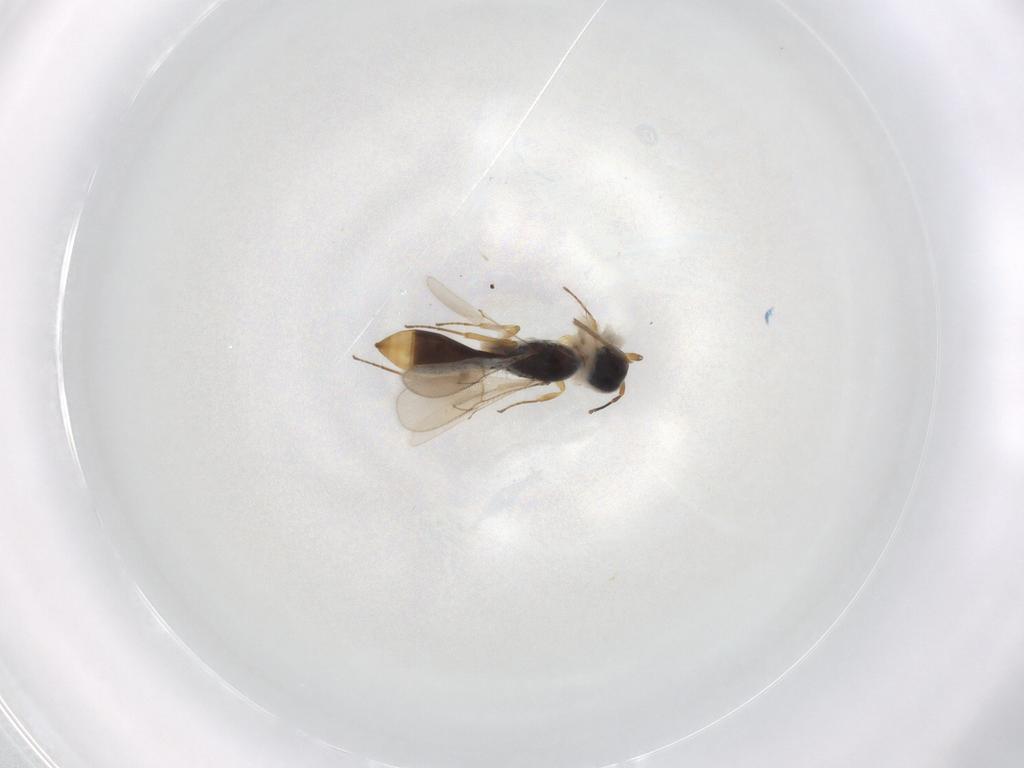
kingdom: Animalia
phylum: Arthropoda
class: Insecta
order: Hymenoptera
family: Scelionidae
